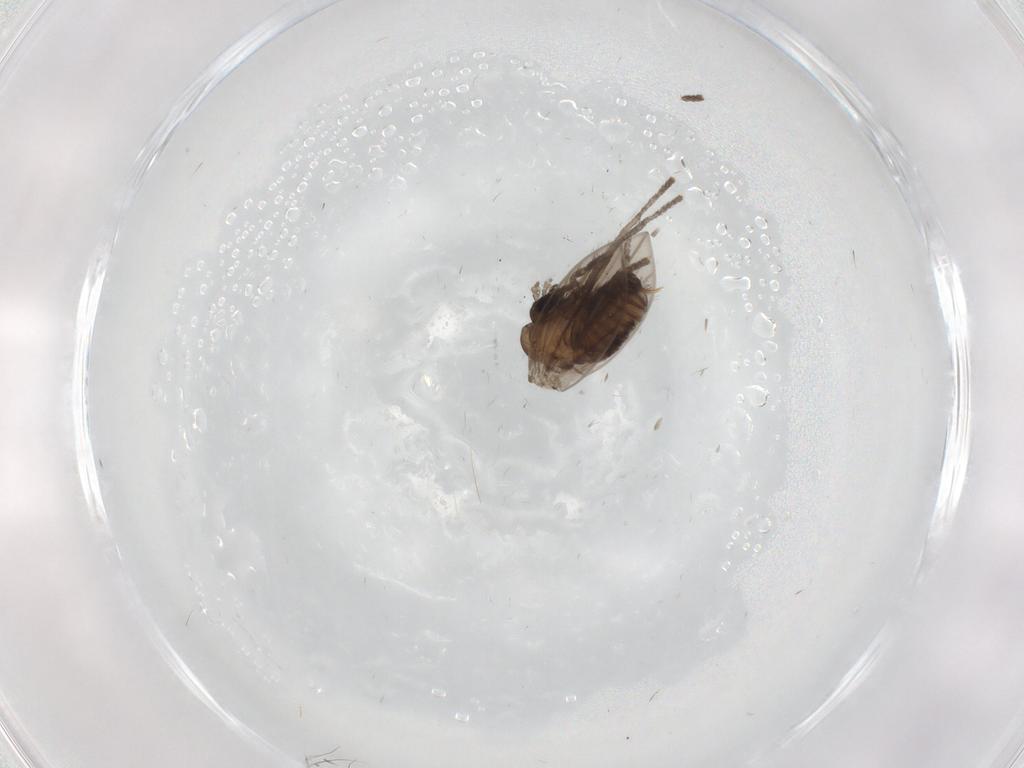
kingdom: Animalia
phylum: Arthropoda
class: Insecta
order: Diptera
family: Psychodidae
